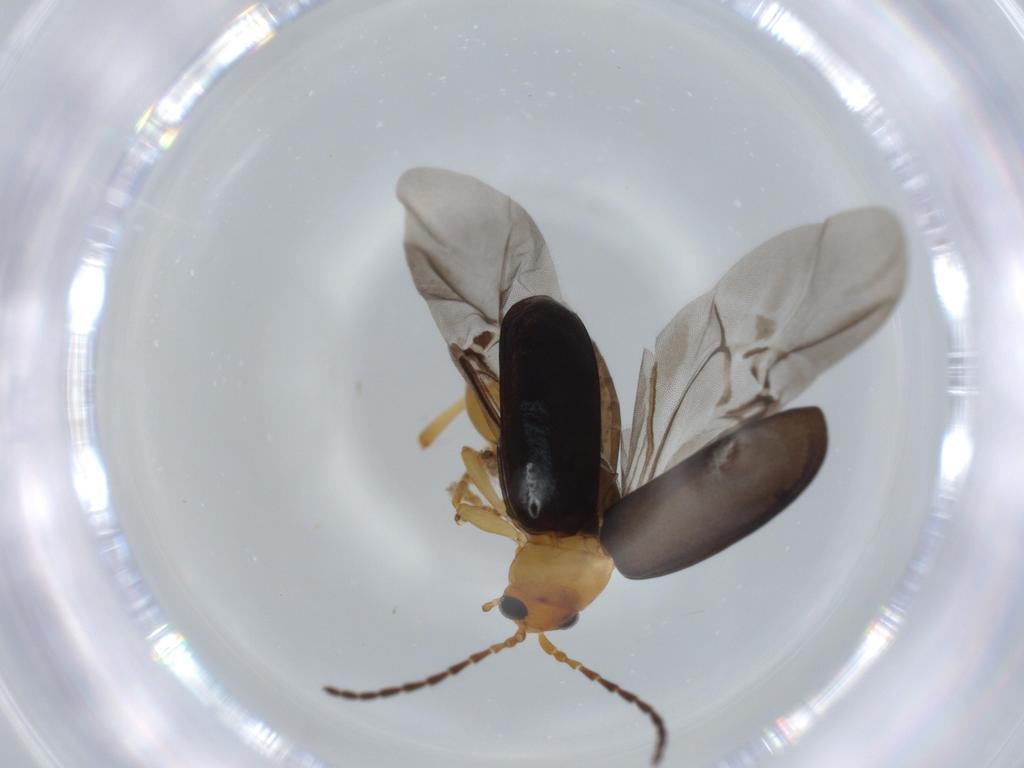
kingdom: Animalia
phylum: Arthropoda
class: Insecta
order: Coleoptera
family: Chrysomelidae
